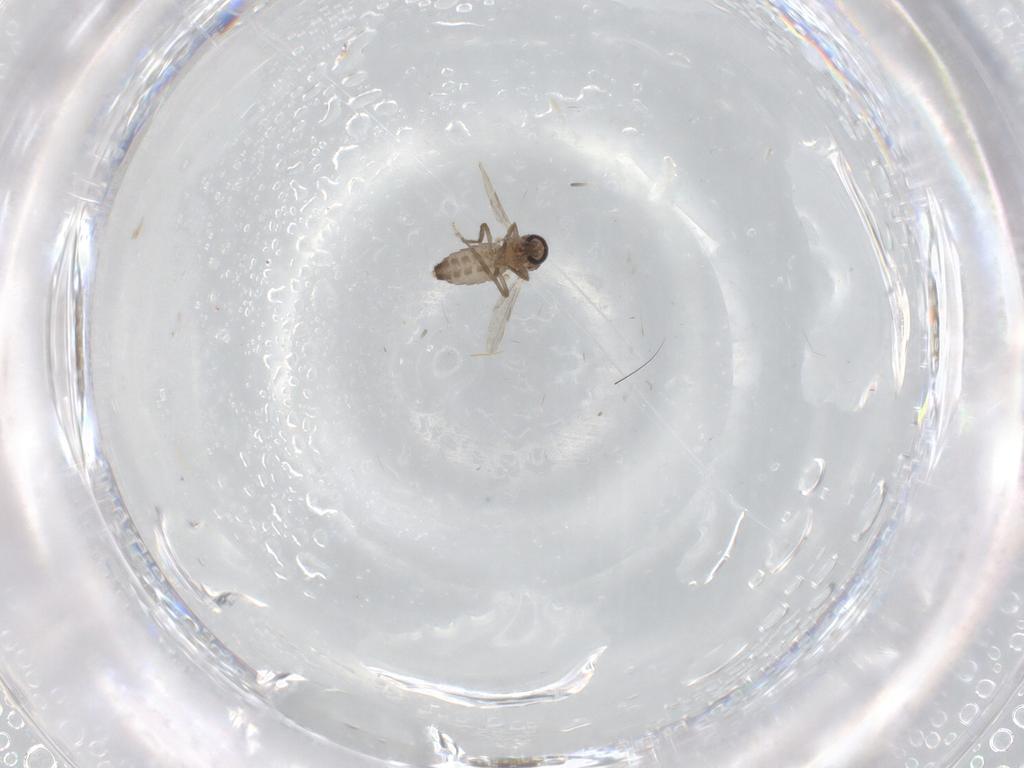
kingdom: Animalia
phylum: Arthropoda
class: Insecta
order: Diptera
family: Ceratopogonidae
